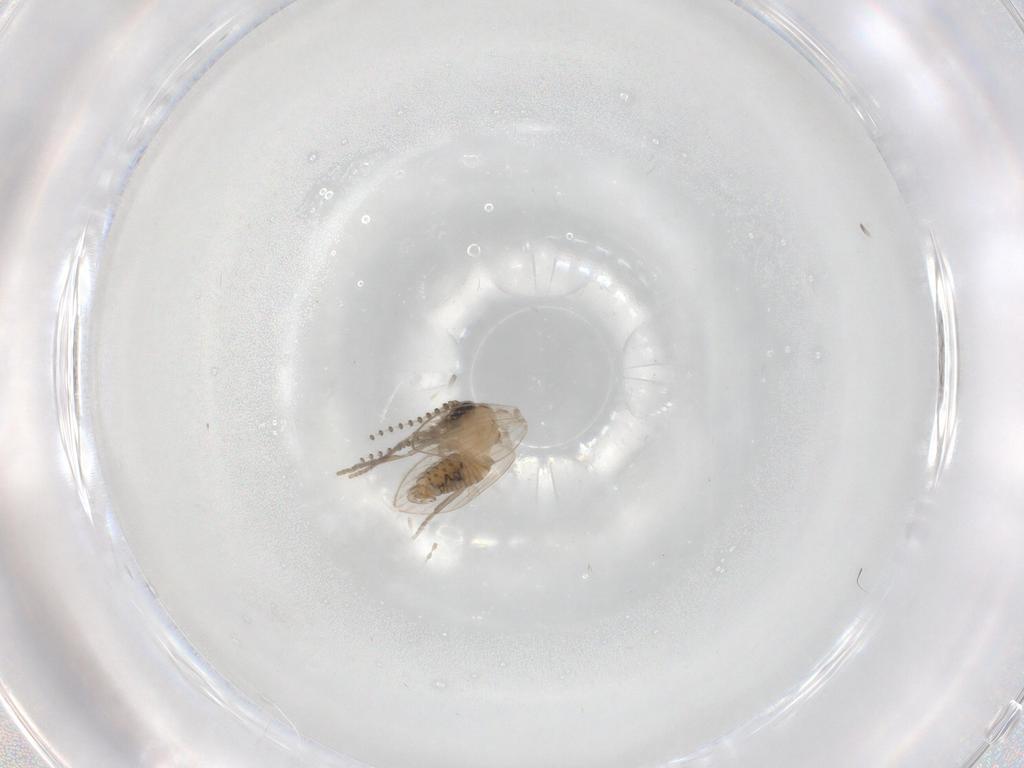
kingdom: Animalia
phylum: Arthropoda
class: Insecta
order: Diptera
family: Psychodidae
